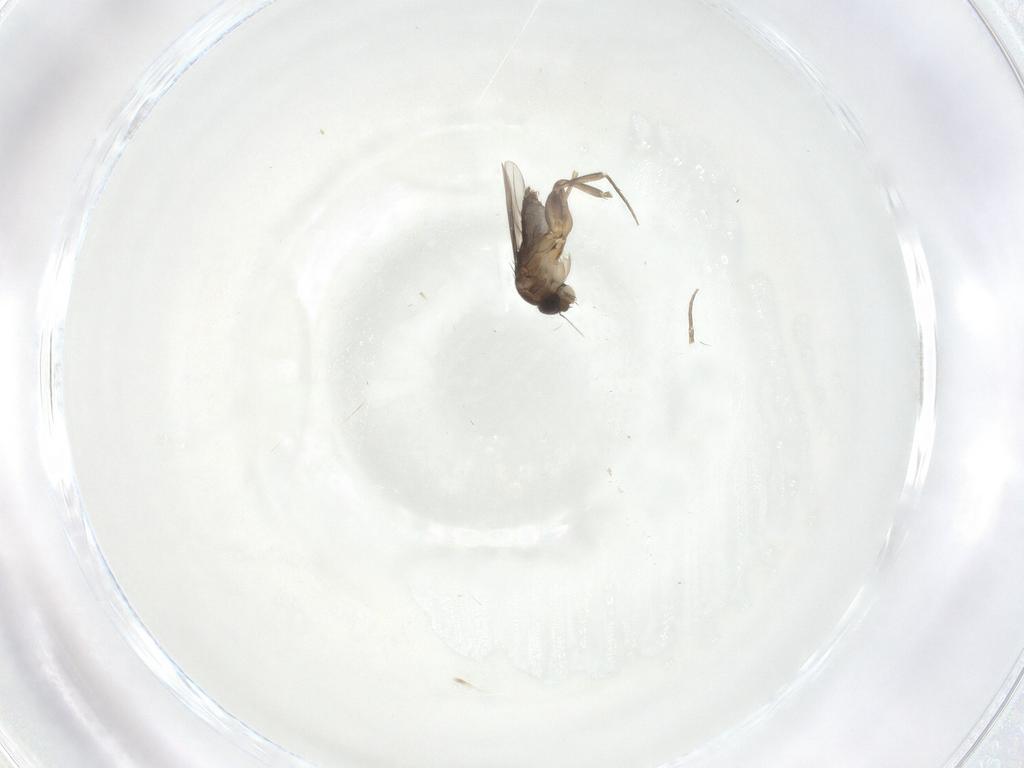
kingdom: Animalia
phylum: Arthropoda
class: Insecta
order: Diptera
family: Phoridae
